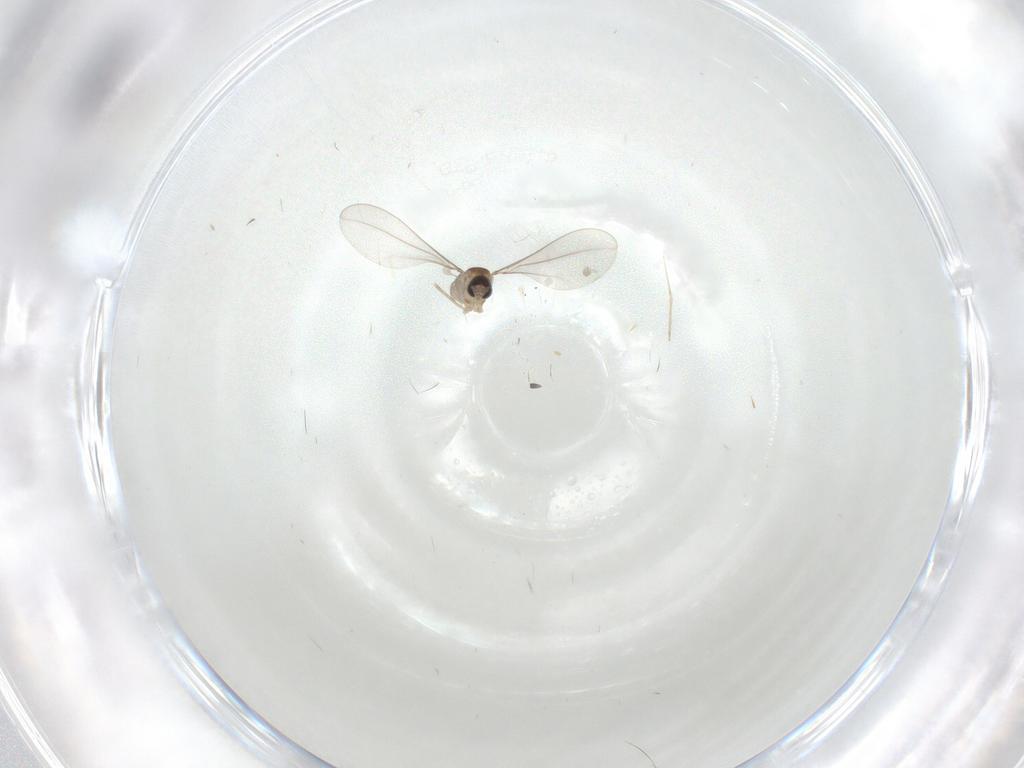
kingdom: Animalia
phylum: Arthropoda
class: Insecta
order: Diptera
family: Cecidomyiidae
